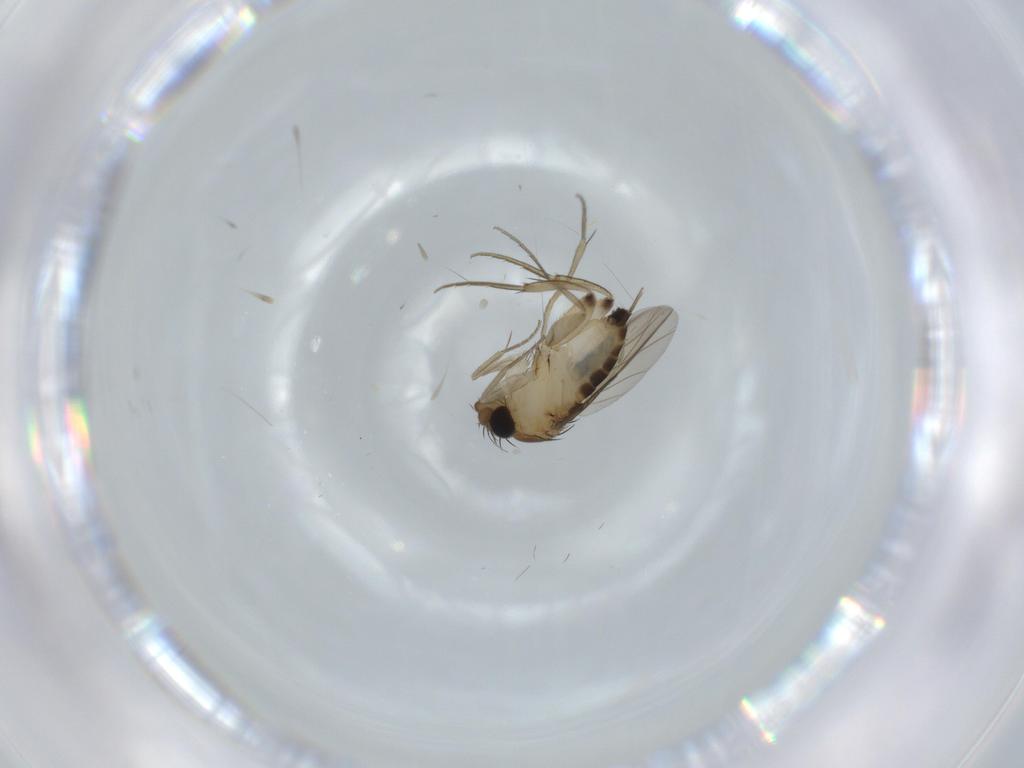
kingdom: Animalia
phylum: Arthropoda
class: Insecta
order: Diptera
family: Phoridae
